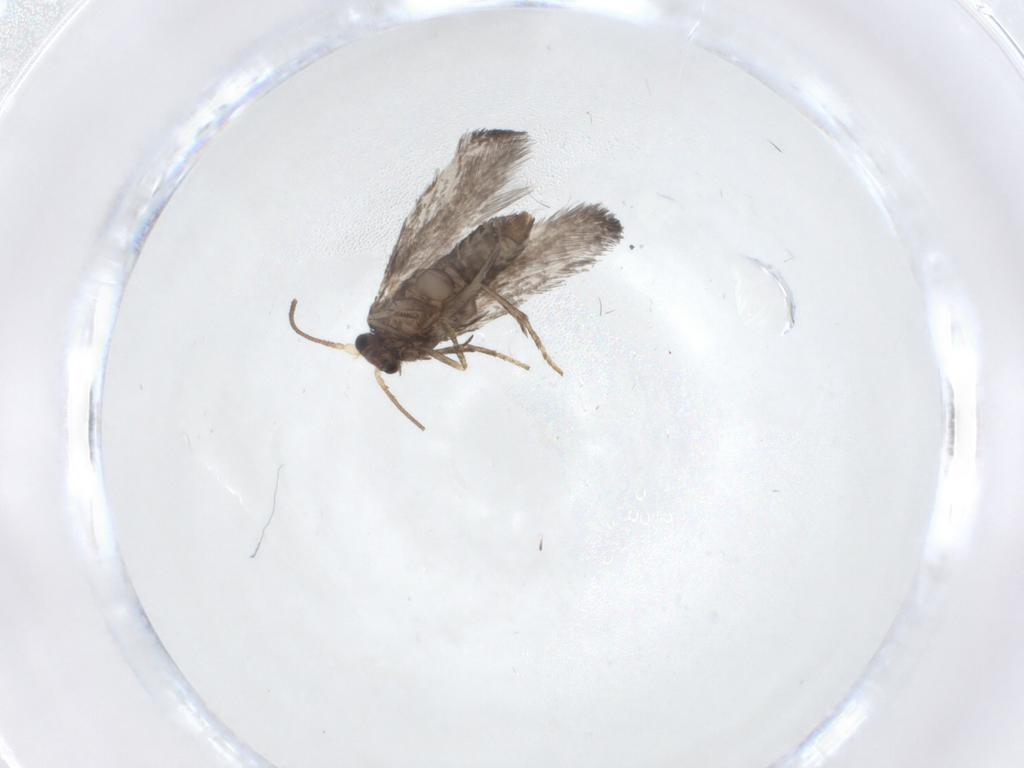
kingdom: Animalia
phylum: Arthropoda
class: Insecta
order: Lepidoptera
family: Nepticulidae
